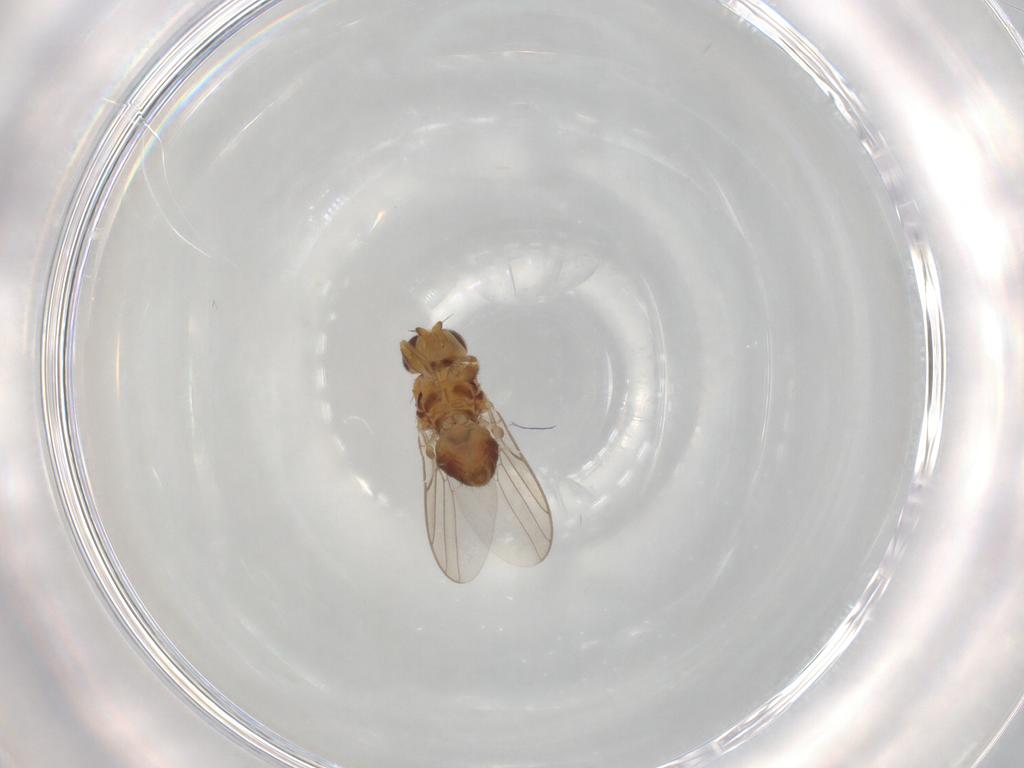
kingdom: Animalia
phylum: Arthropoda
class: Insecta
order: Diptera
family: Chloropidae
